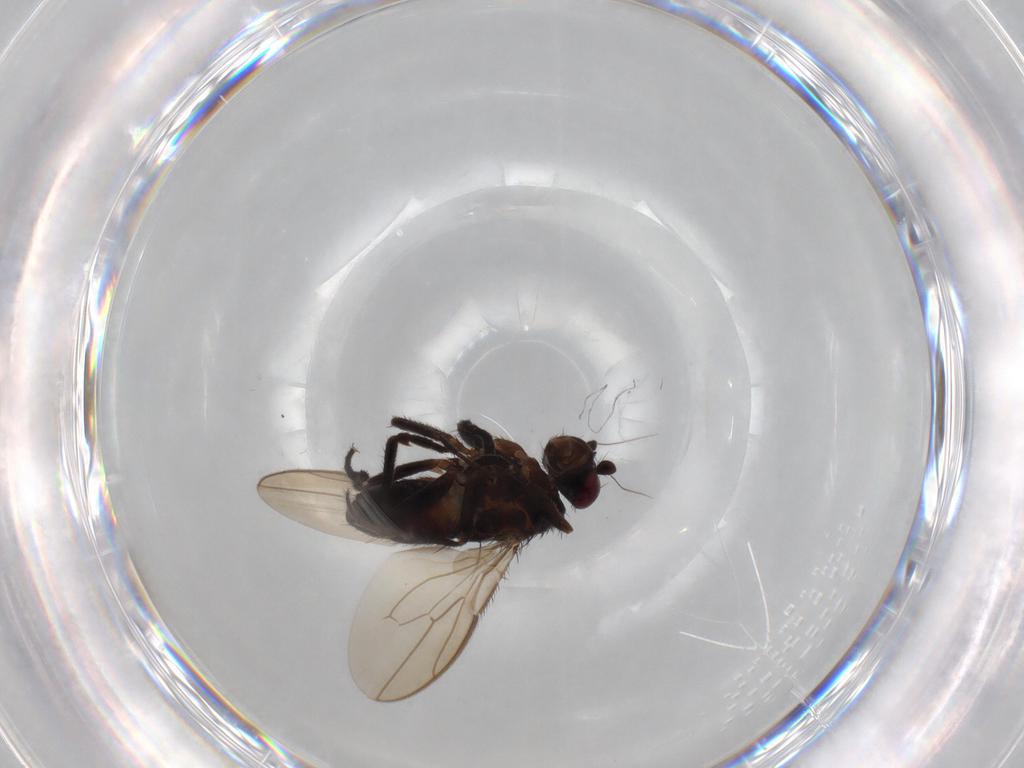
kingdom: Animalia
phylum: Arthropoda
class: Insecta
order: Diptera
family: Sphaeroceridae
